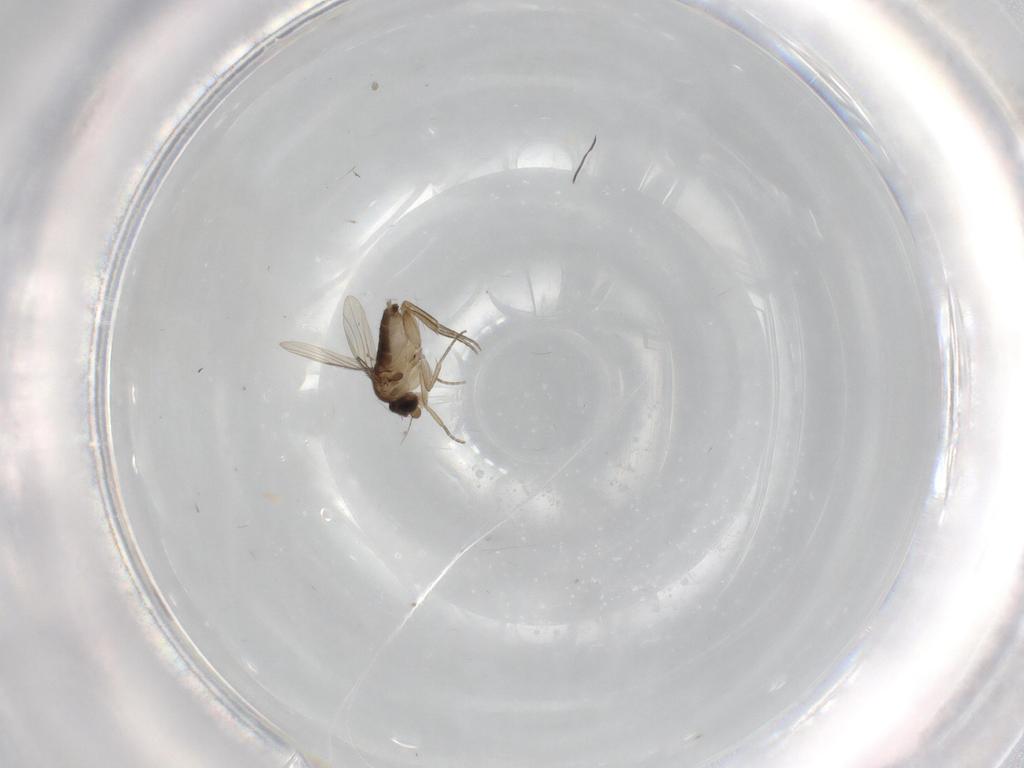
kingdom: Animalia
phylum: Arthropoda
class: Insecta
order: Diptera
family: Phoridae
